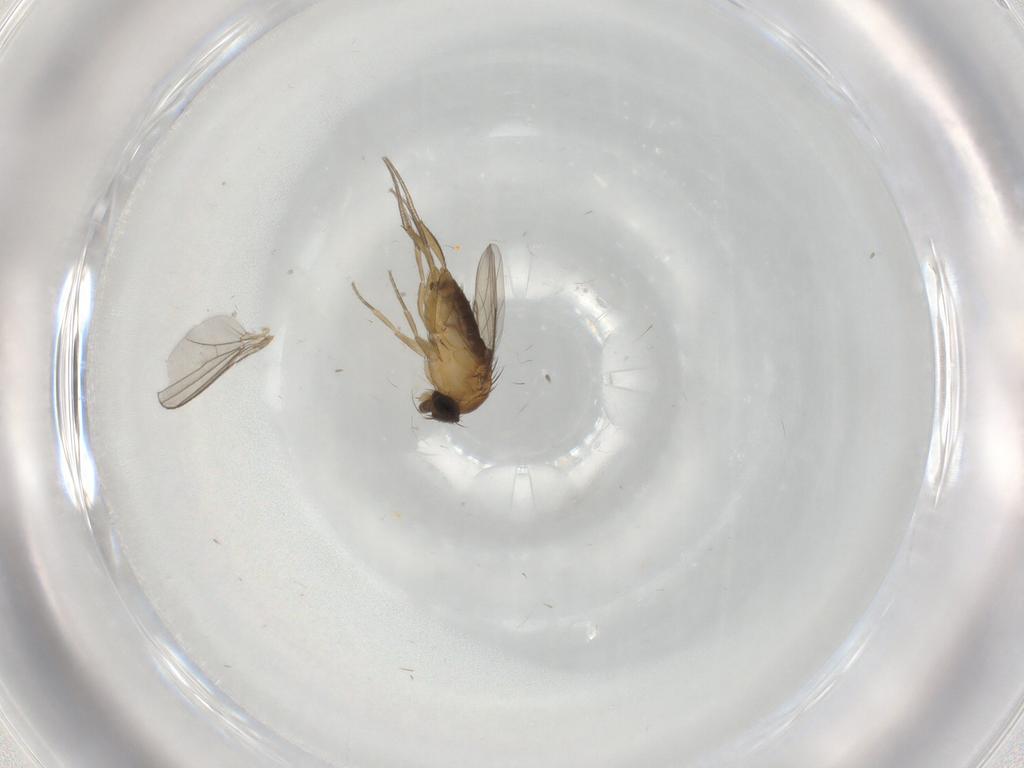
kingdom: Animalia
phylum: Arthropoda
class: Insecta
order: Diptera
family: Phoridae
